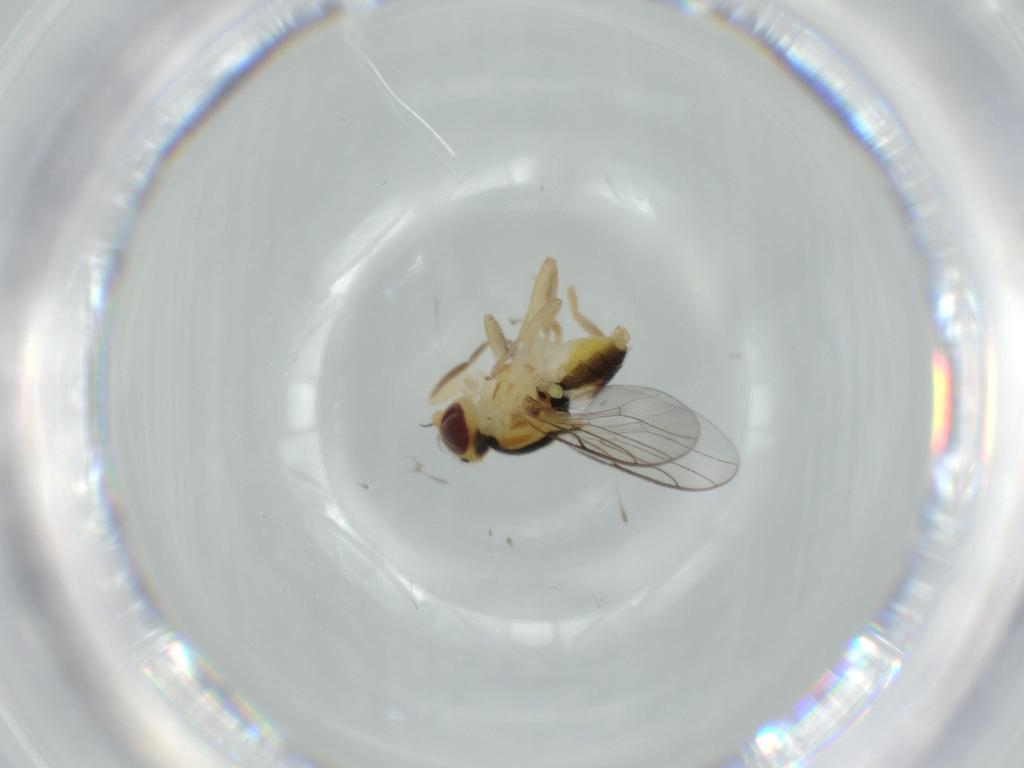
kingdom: Animalia
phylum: Arthropoda
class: Insecta
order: Diptera
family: Chloropidae
